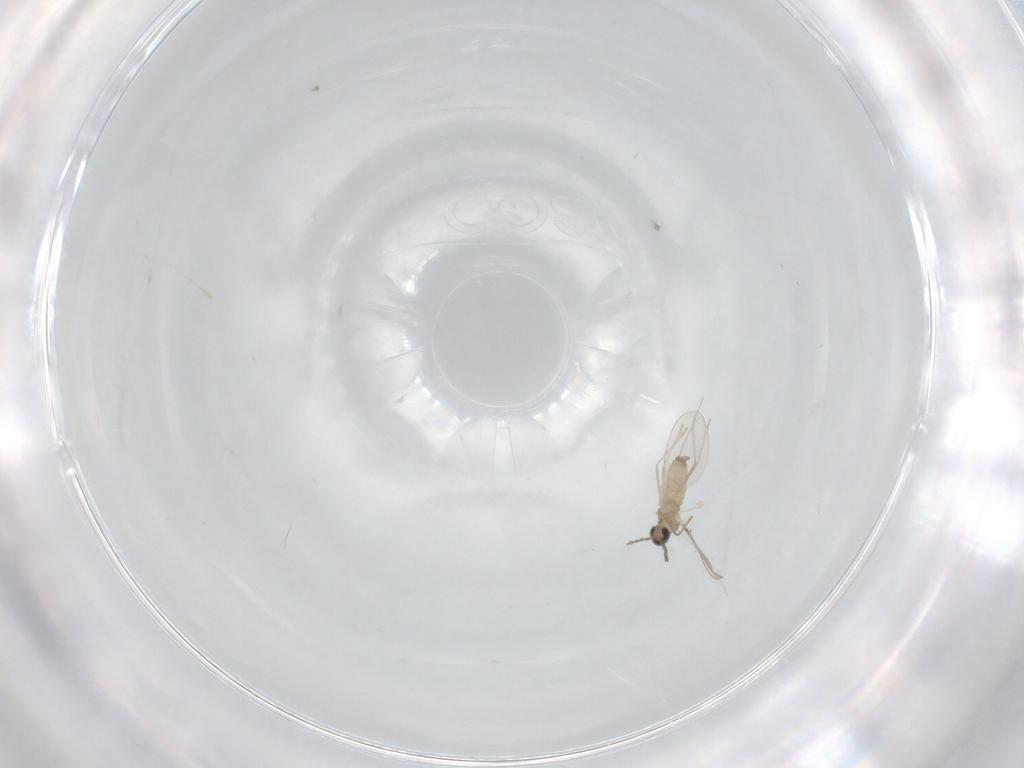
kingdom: Animalia
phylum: Arthropoda
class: Insecta
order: Diptera
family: Cecidomyiidae
